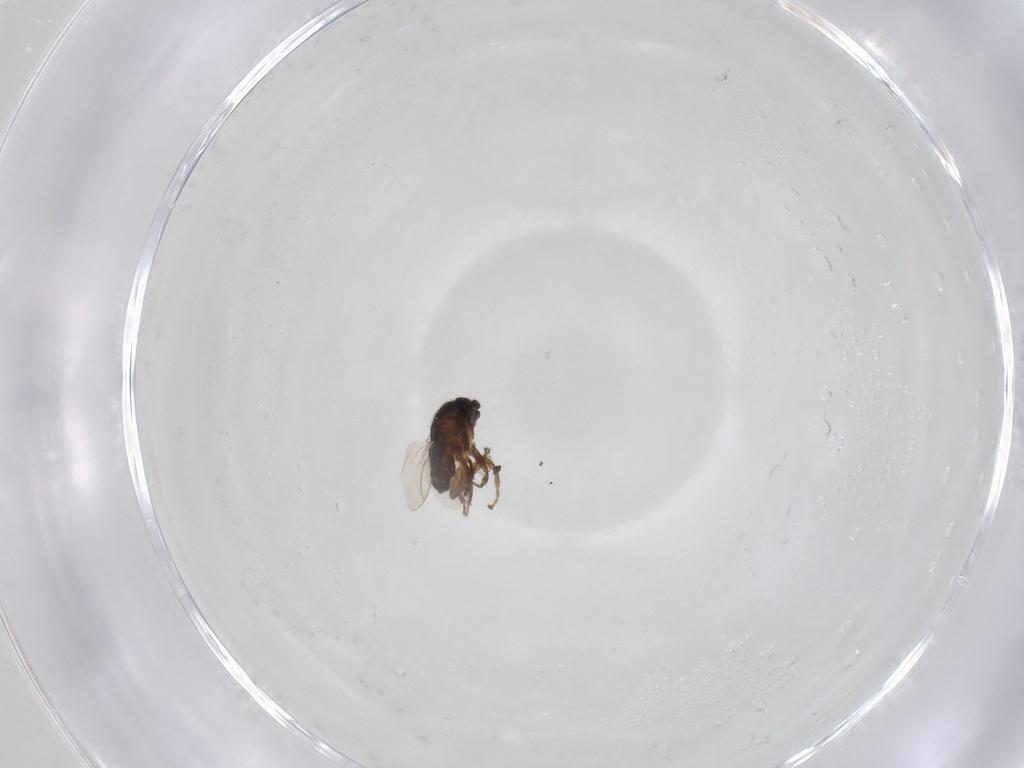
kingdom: Animalia
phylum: Arthropoda
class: Insecta
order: Diptera
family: Sphaeroceridae
